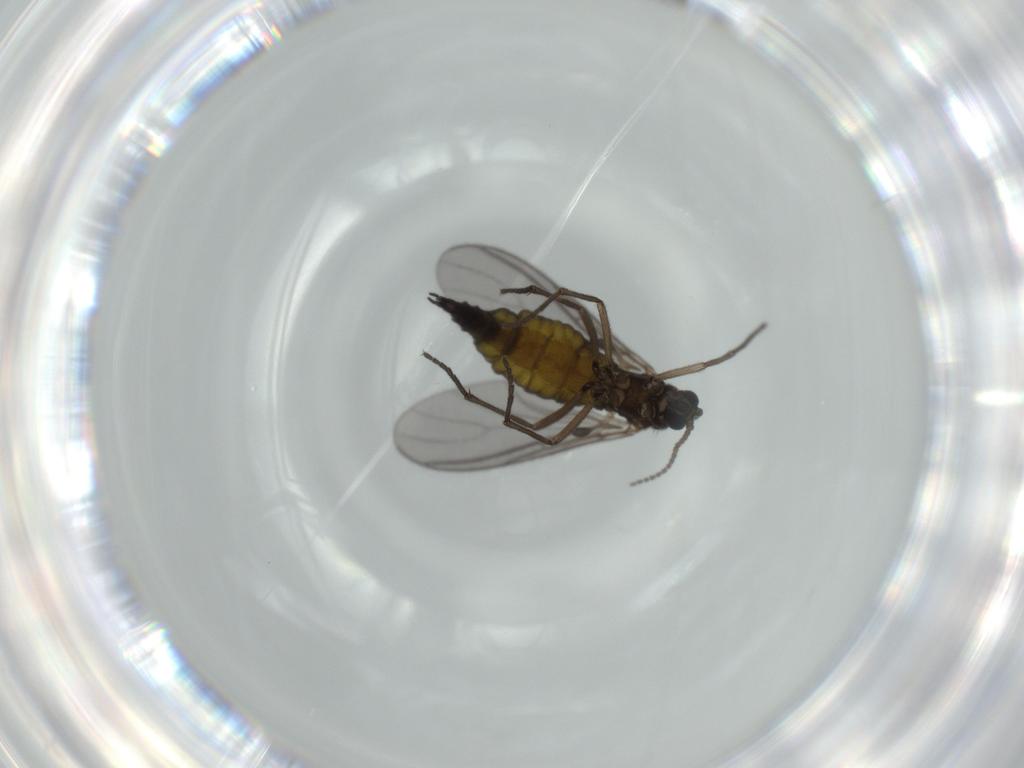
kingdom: Animalia
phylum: Arthropoda
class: Insecta
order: Diptera
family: Sciaridae
